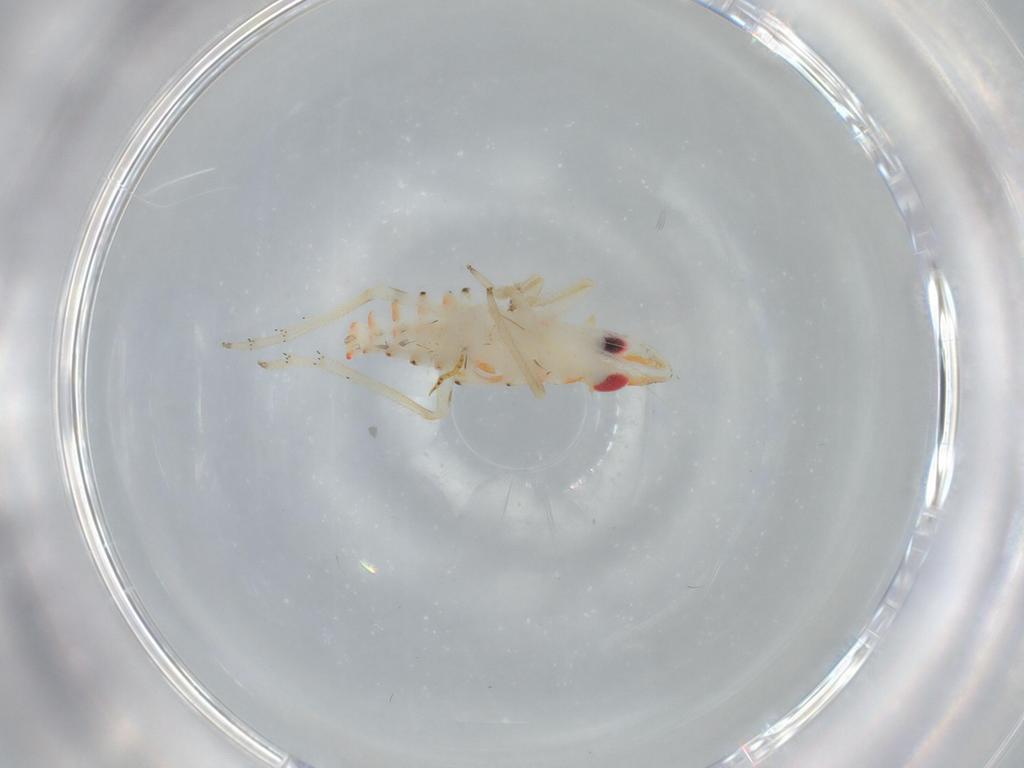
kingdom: Animalia
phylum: Arthropoda
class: Insecta
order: Hemiptera
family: Tropiduchidae
